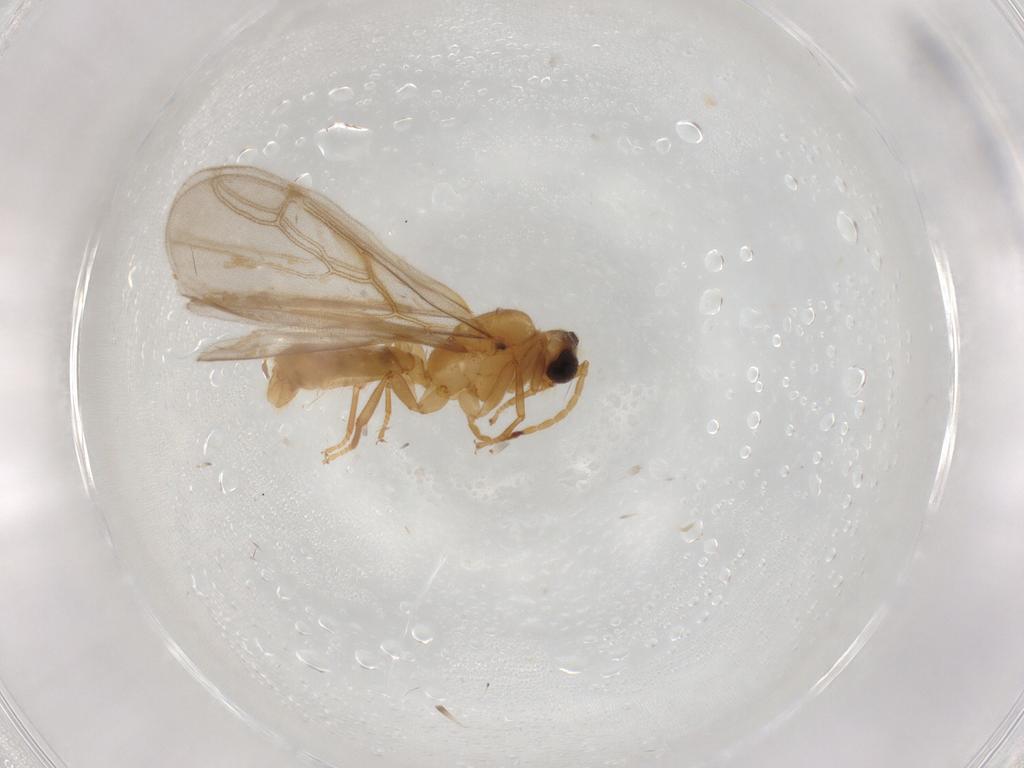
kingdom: Animalia
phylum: Arthropoda
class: Insecta
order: Hymenoptera
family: Formicidae
